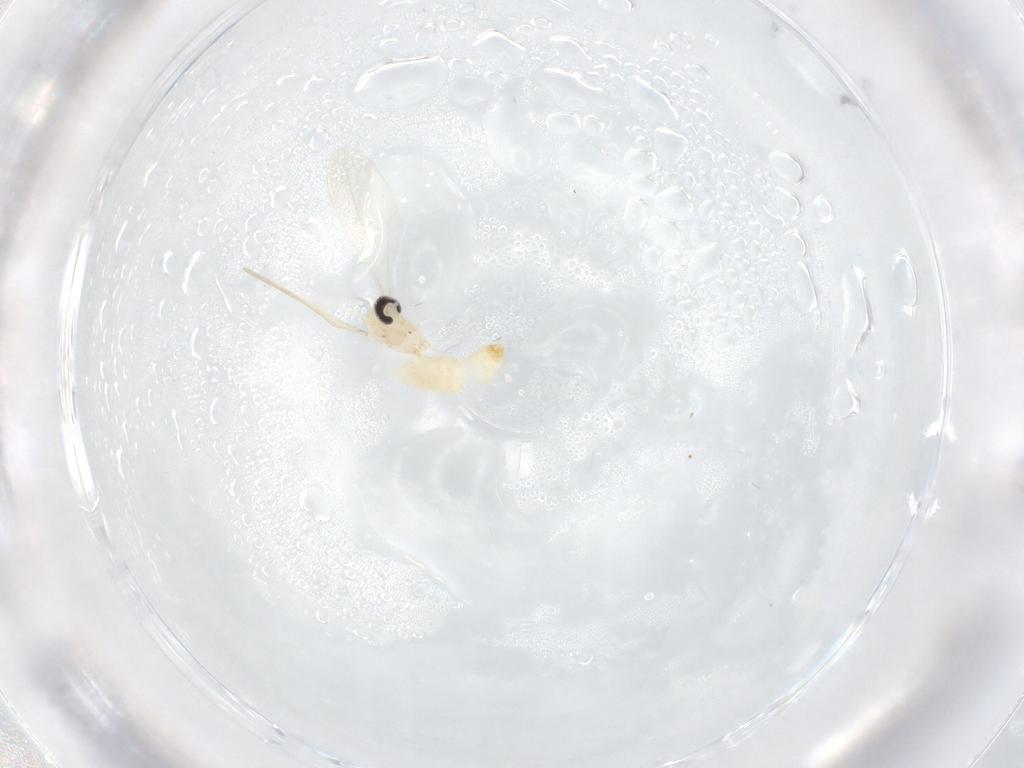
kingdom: Animalia
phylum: Arthropoda
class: Insecta
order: Diptera
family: Cecidomyiidae
